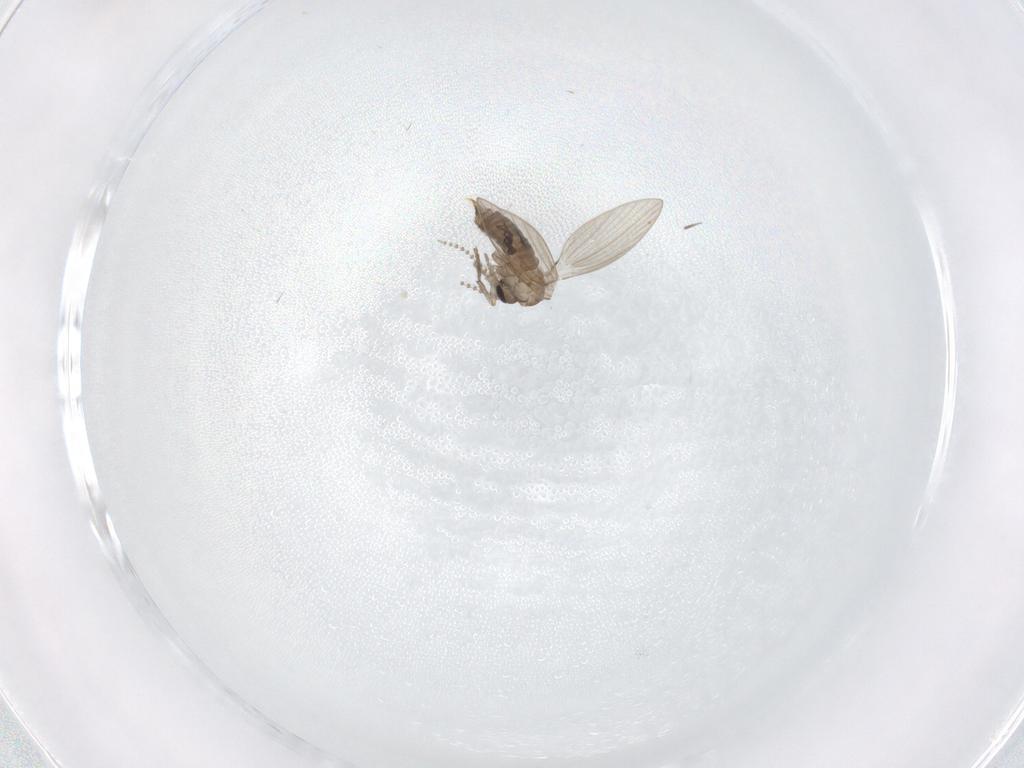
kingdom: Animalia
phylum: Arthropoda
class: Insecta
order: Diptera
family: Psychodidae
